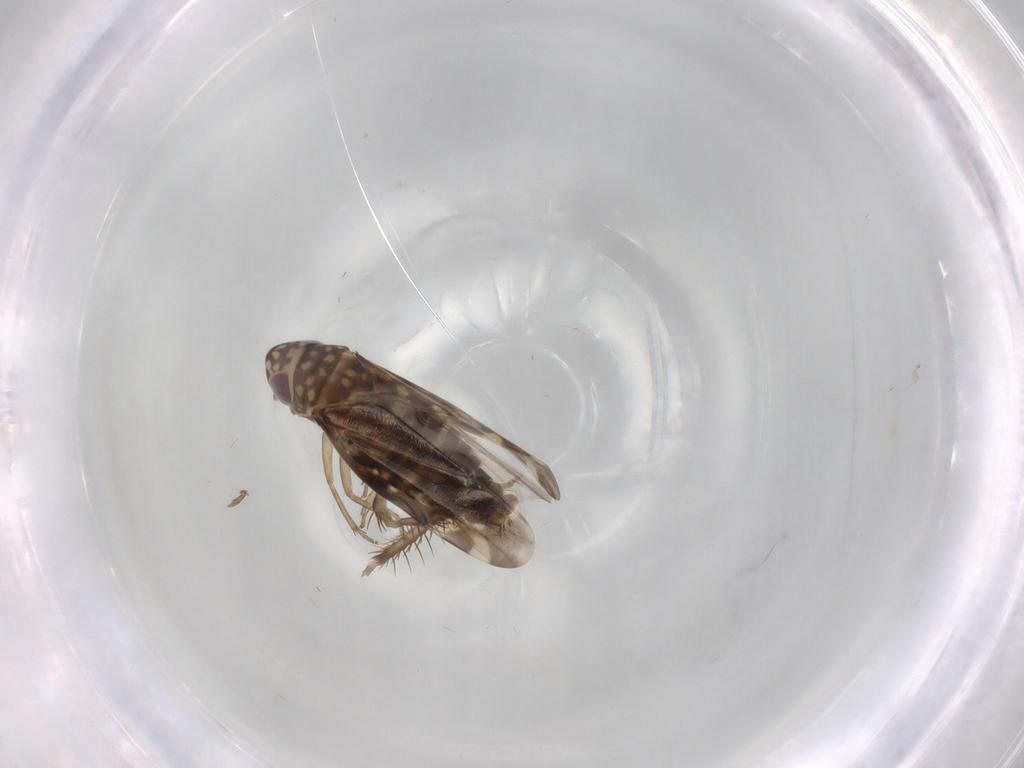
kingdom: Animalia
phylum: Arthropoda
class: Insecta
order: Hemiptera
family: Cicadellidae
